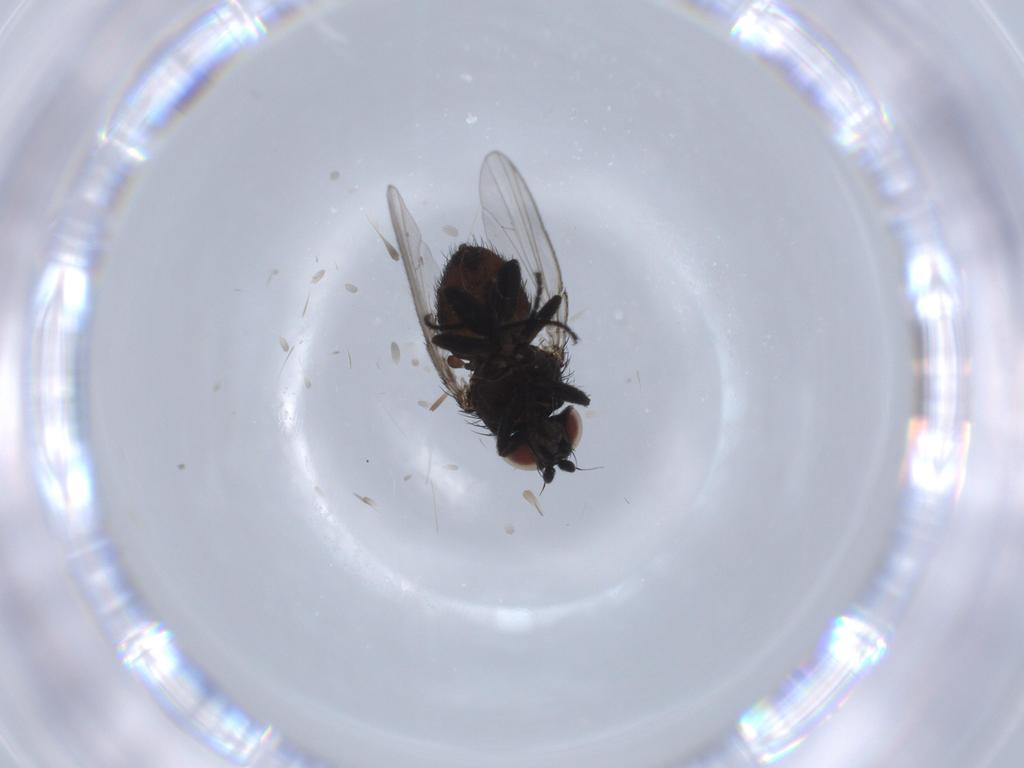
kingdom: Animalia
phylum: Arthropoda
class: Insecta
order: Diptera
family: Milichiidae
